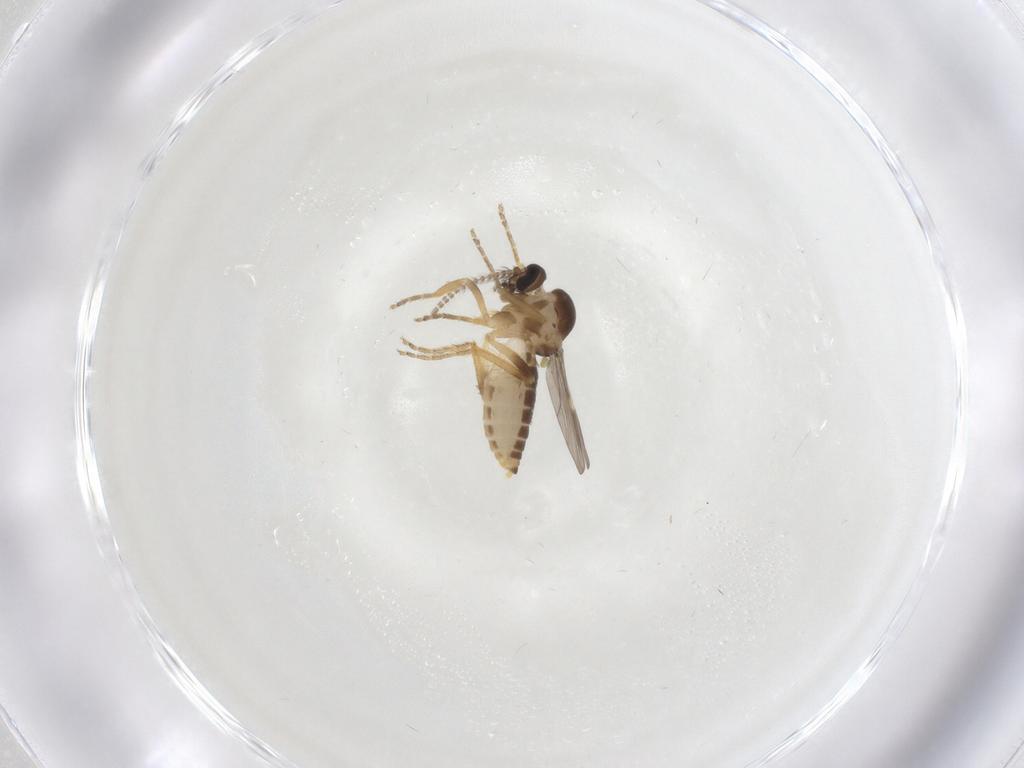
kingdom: Animalia
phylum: Arthropoda
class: Insecta
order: Diptera
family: Ceratopogonidae
